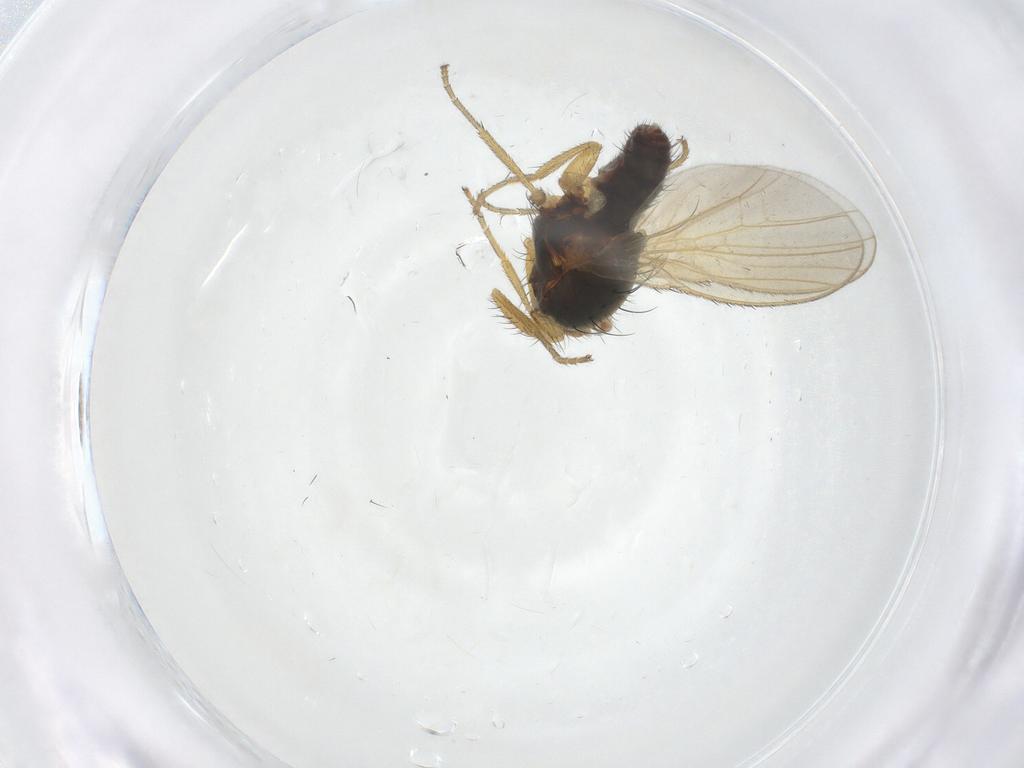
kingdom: Animalia
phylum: Arthropoda
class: Insecta
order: Diptera
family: Heleomyzidae
